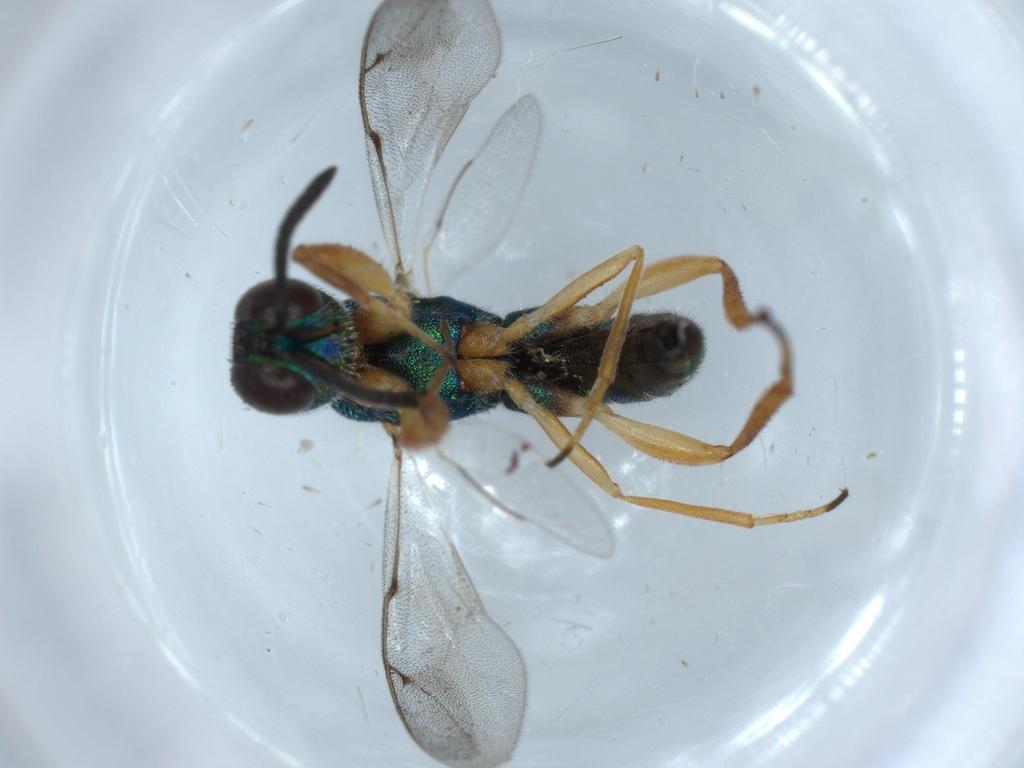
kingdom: Animalia
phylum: Arthropoda
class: Insecta
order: Hymenoptera
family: Lyciscidae
